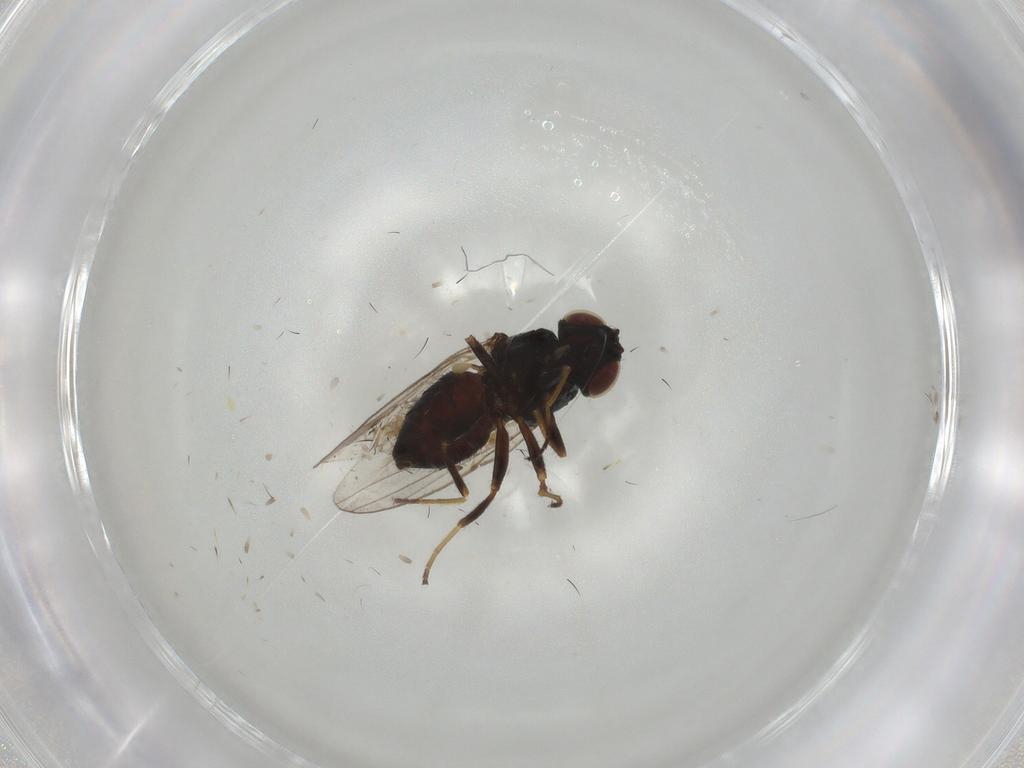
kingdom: Animalia
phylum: Arthropoda
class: Insecta
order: Diptera
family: Chloropidae
